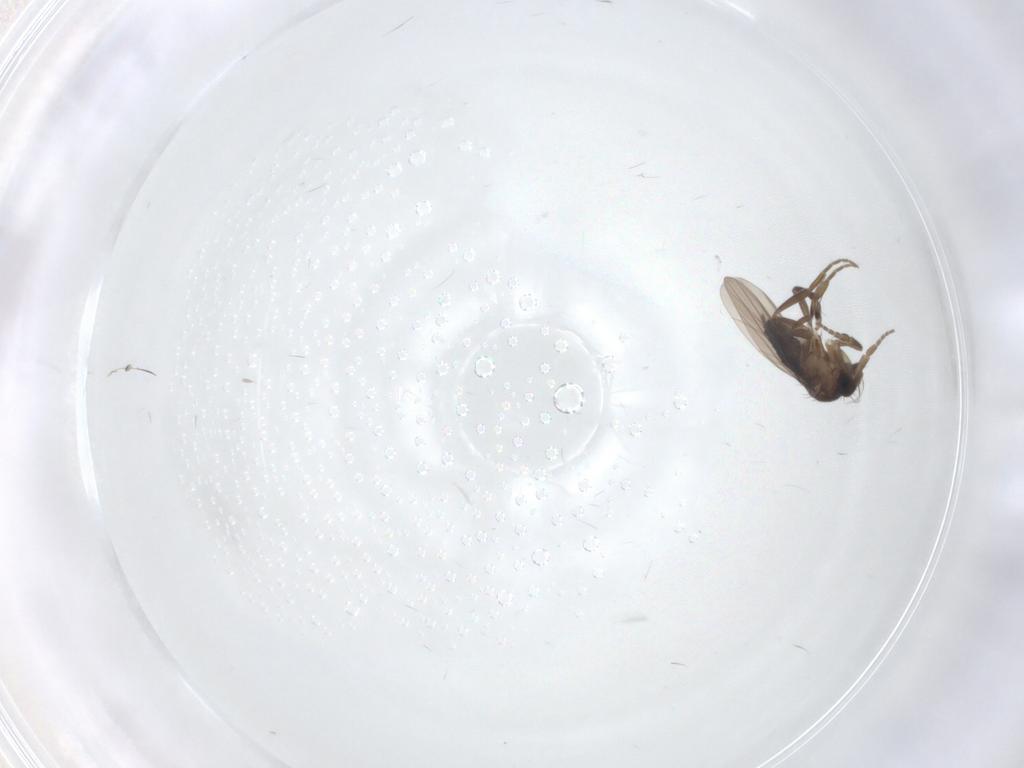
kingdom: Animalia
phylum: Arthropoda
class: Insecta
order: Diptera
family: Phoridae
